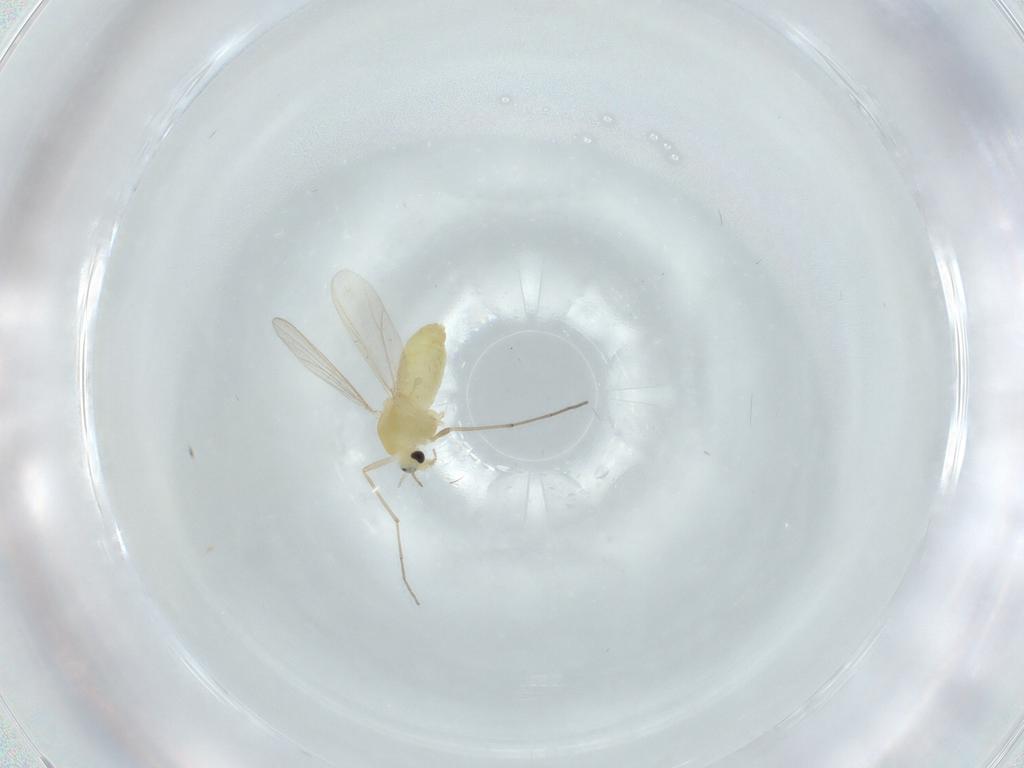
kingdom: Animalia
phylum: Arthropoda
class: Insecta
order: Diptera
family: Chironomidae
